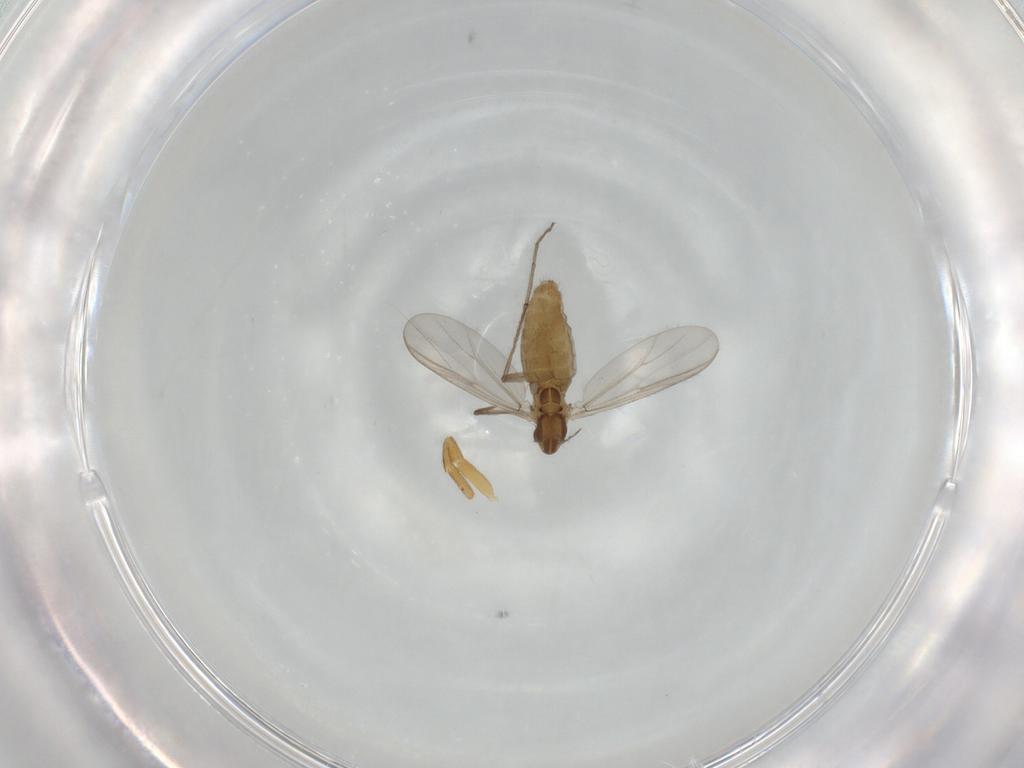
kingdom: Animalia
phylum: Arthropoda
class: Insecta
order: Diptera
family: Chironomidae
